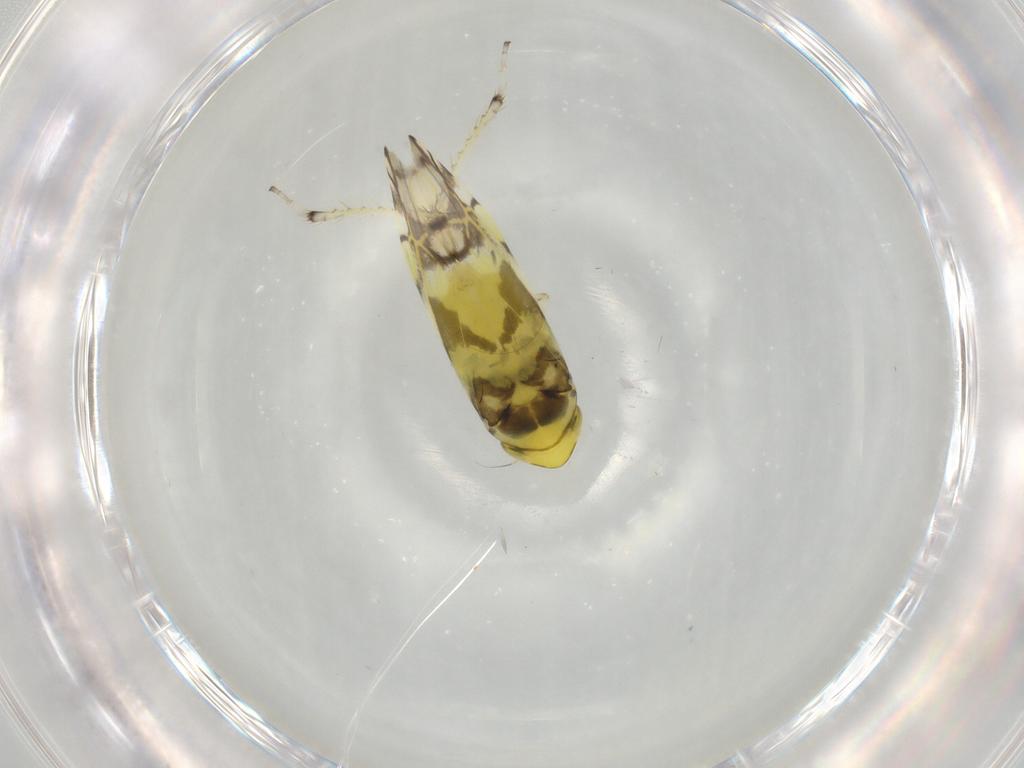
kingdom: Animalia
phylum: Arthropoda
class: Insecta
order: Hemiptera
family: Cicadellidae
